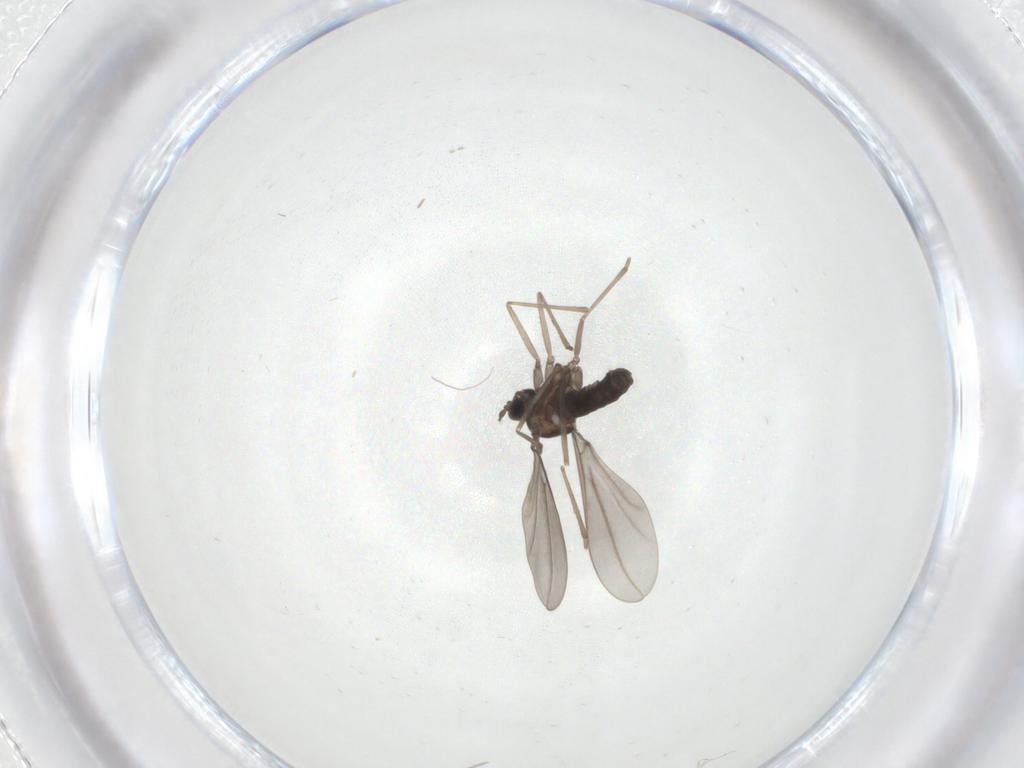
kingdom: Animalia
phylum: Arthropoda
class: Insecta
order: Diptera
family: Cecidomyiidae
